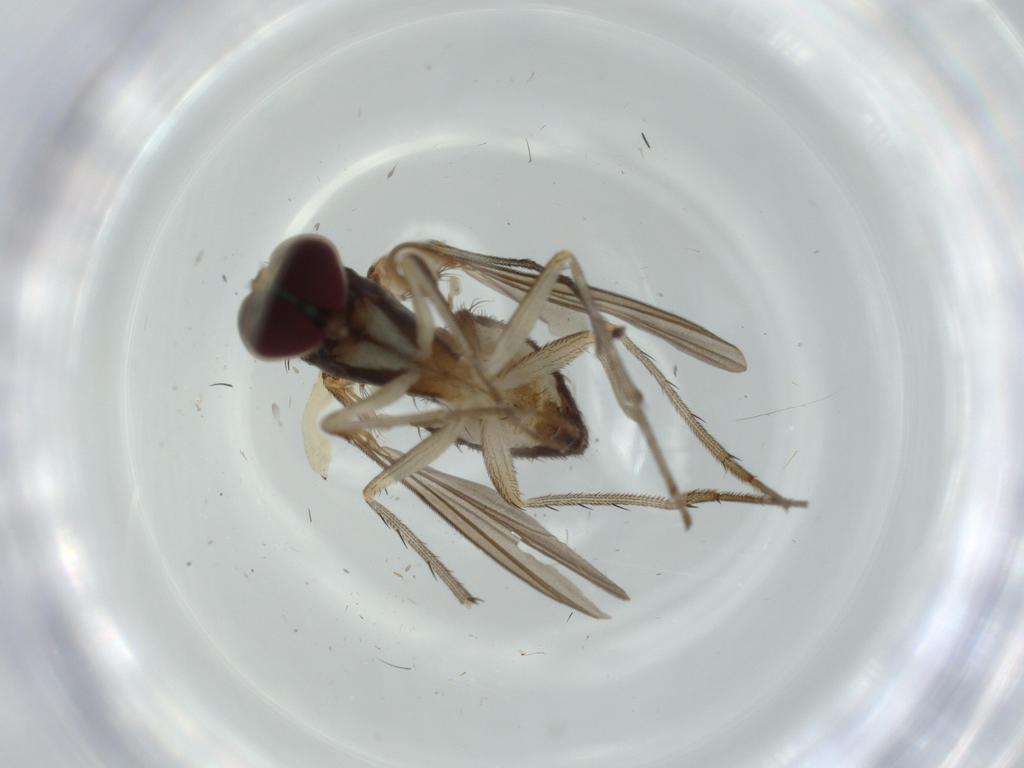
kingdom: Animalia
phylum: Arthropoda
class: Insecta
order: Diptera
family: Dolichopodidae
